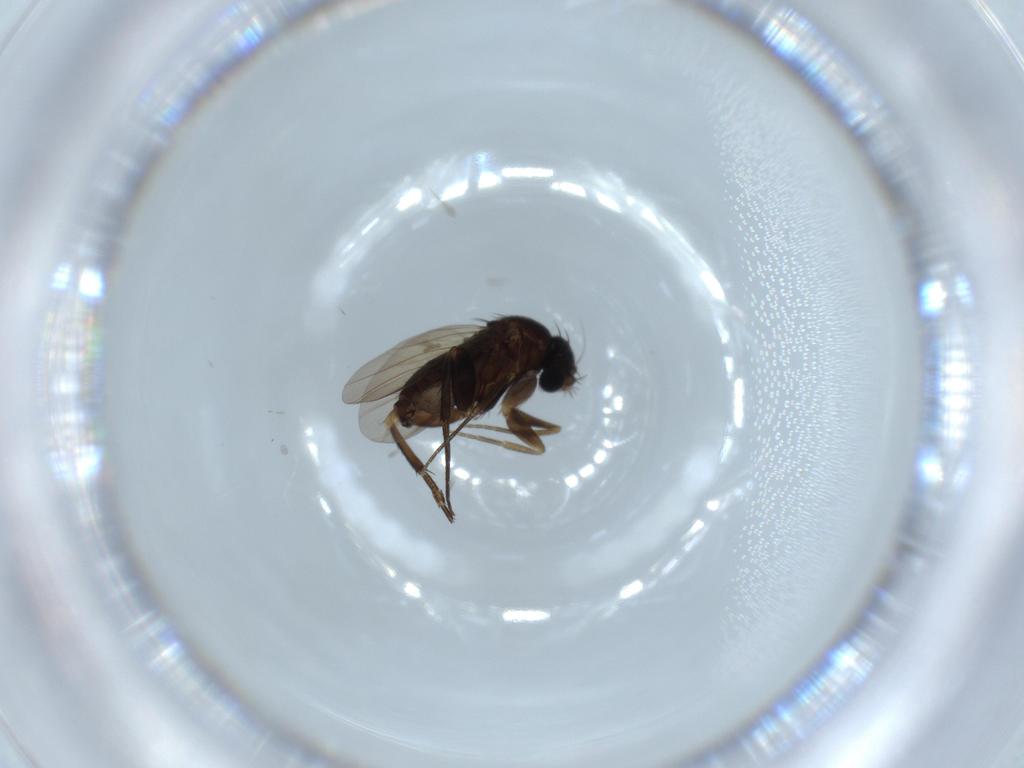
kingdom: Animalia
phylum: Arthropoda
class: Insecta
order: Diptera
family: Phoridae
